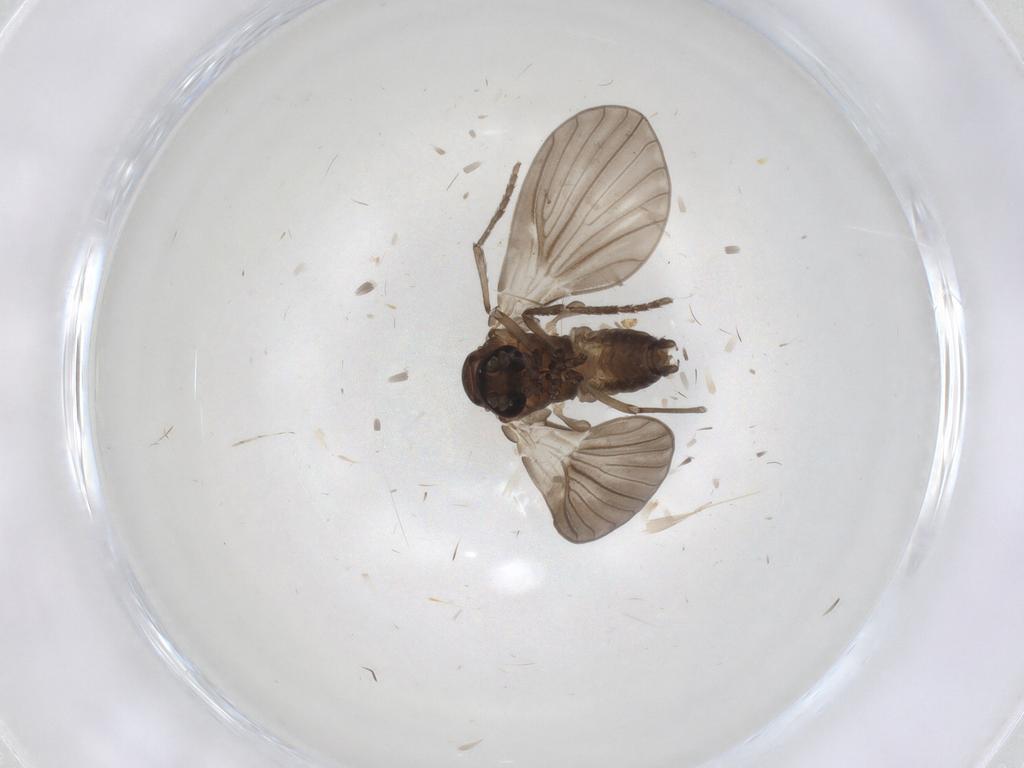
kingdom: Animalia
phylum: Arthropoda
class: Insecta
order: Diptera
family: Psychodidae
